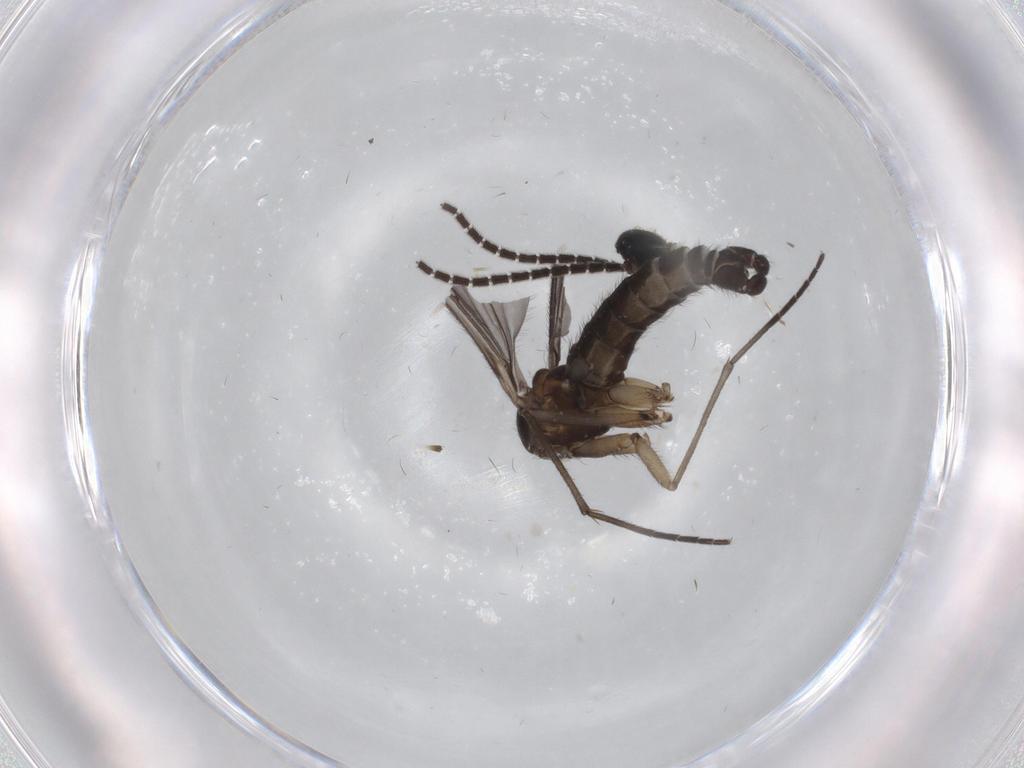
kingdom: Animalia
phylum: Arthropoda
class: Insecta
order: Diptera
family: Sciaridae
